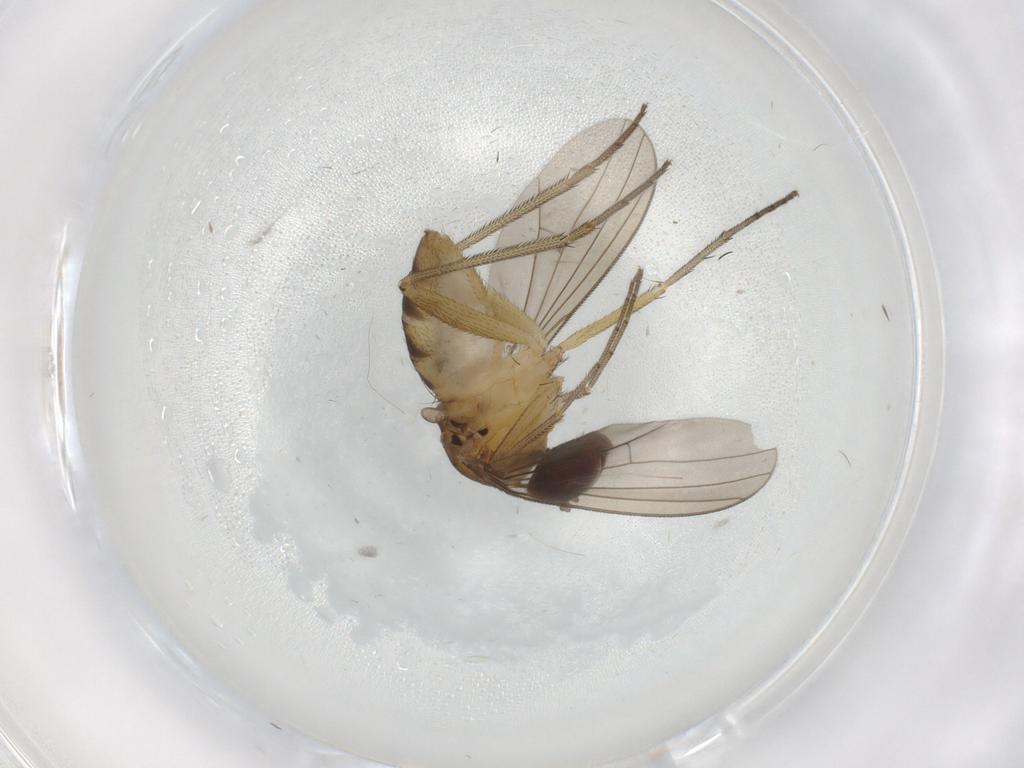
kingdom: Animalia
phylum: Arthropoda
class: Insecta
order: Diptera
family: Dolichopodidae
